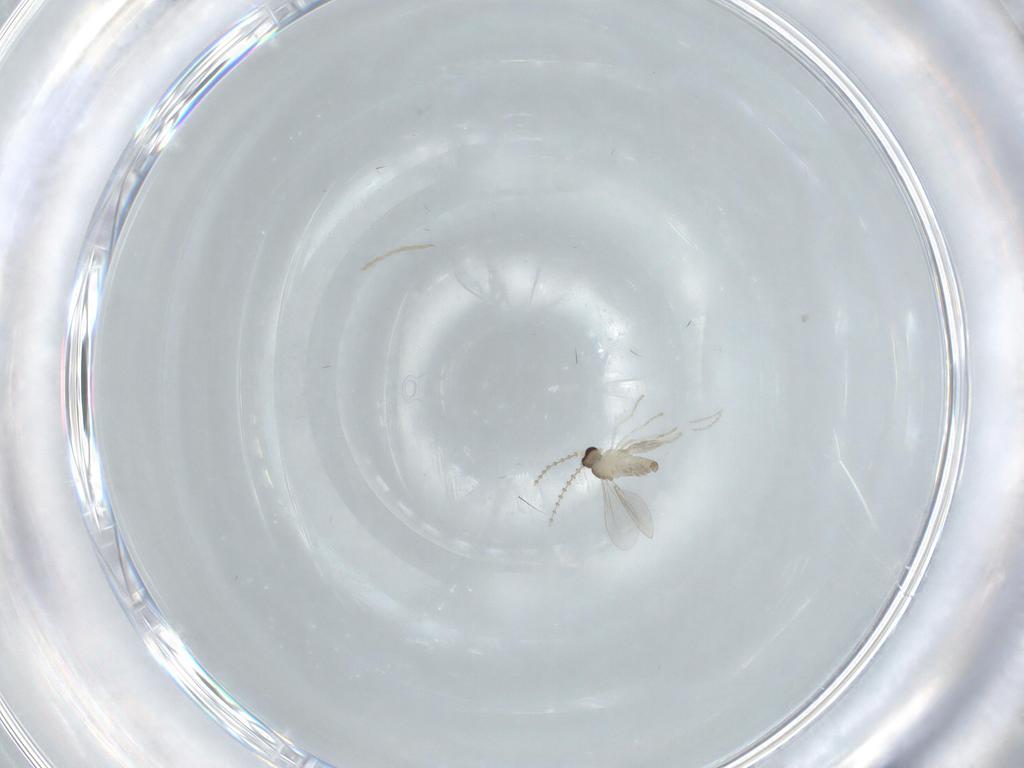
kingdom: Animalia
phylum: Arthropoda
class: Insecta
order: Diptera
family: Cecidomyiidae
